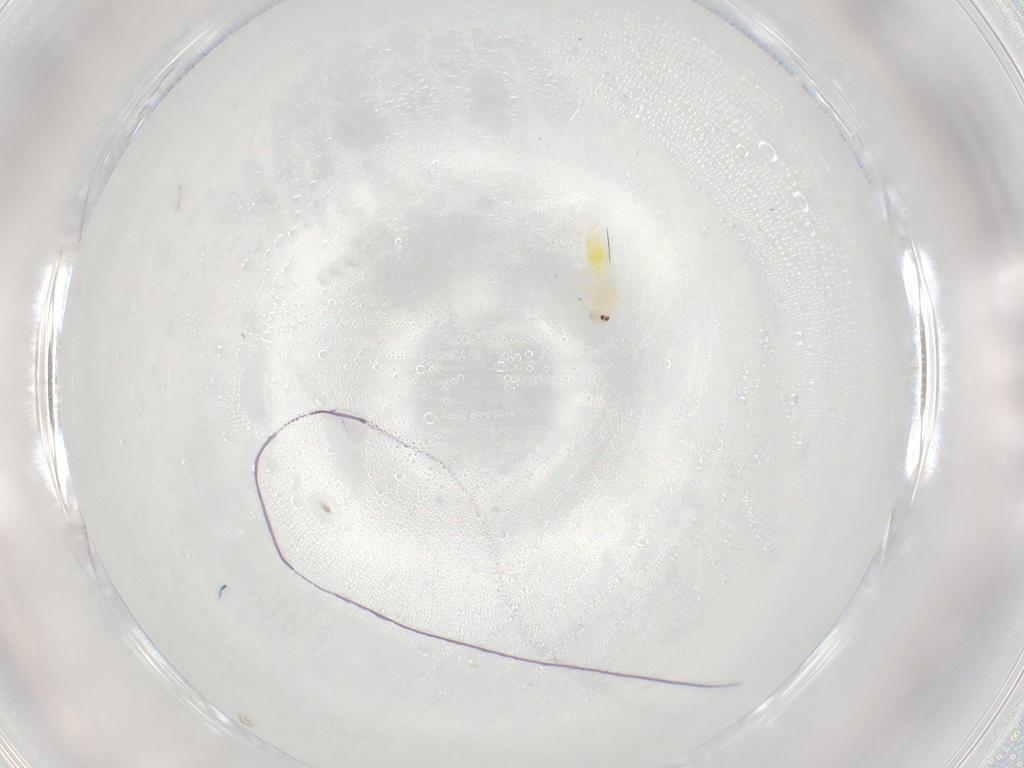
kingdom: Animalia
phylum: Arthropoda
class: Insecta
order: Hemiptera
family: Aleyrodidae
